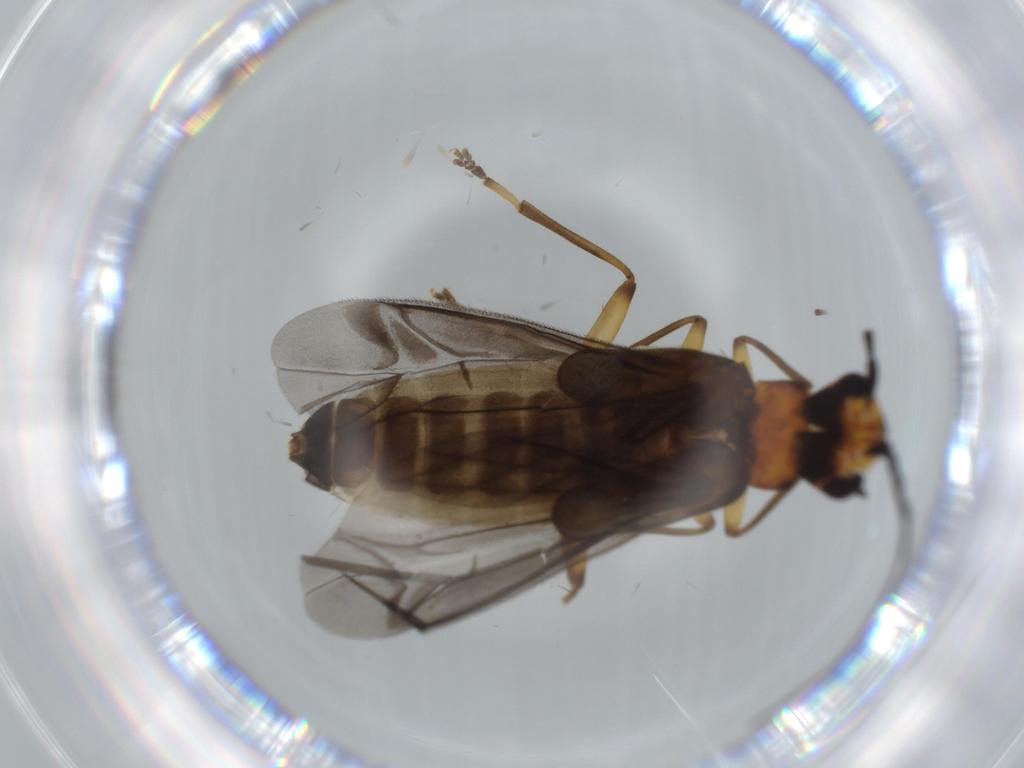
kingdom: Animalia
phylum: Arthropoda
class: Insecta
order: Coleoptera
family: Cantharidae
